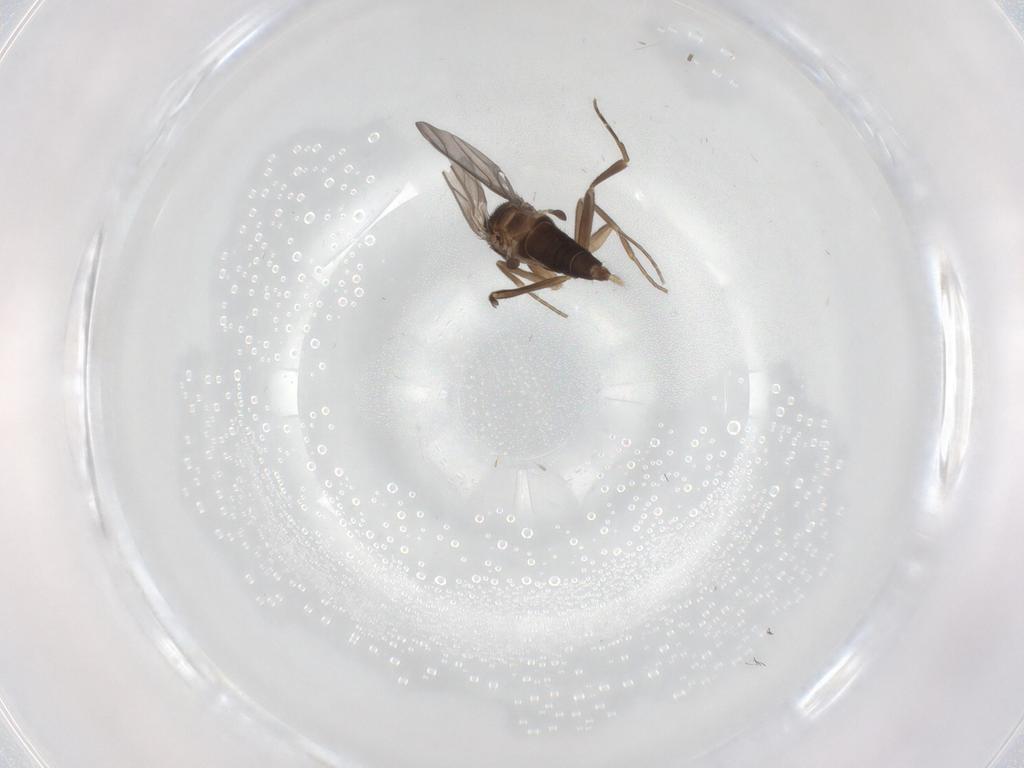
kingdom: Animalia
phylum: Arthropoda
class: Insecta
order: Diptera
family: Phoridae
